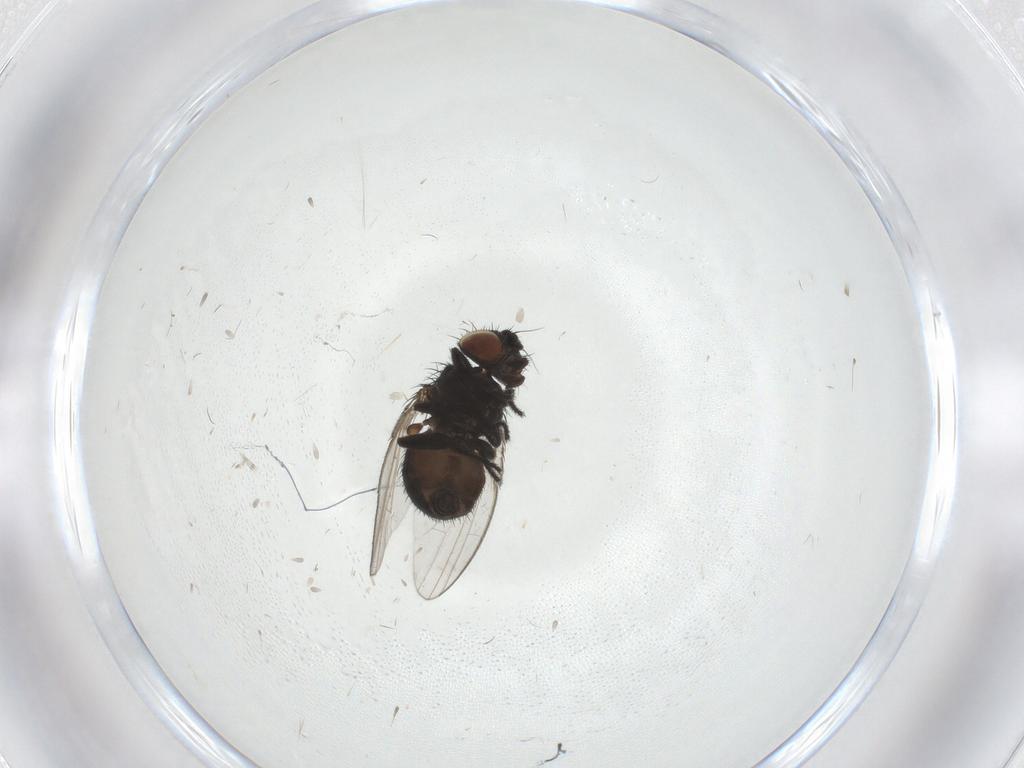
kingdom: Animalia
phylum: Arthropoda
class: Insecta
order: Diptera
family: Milichiidae
